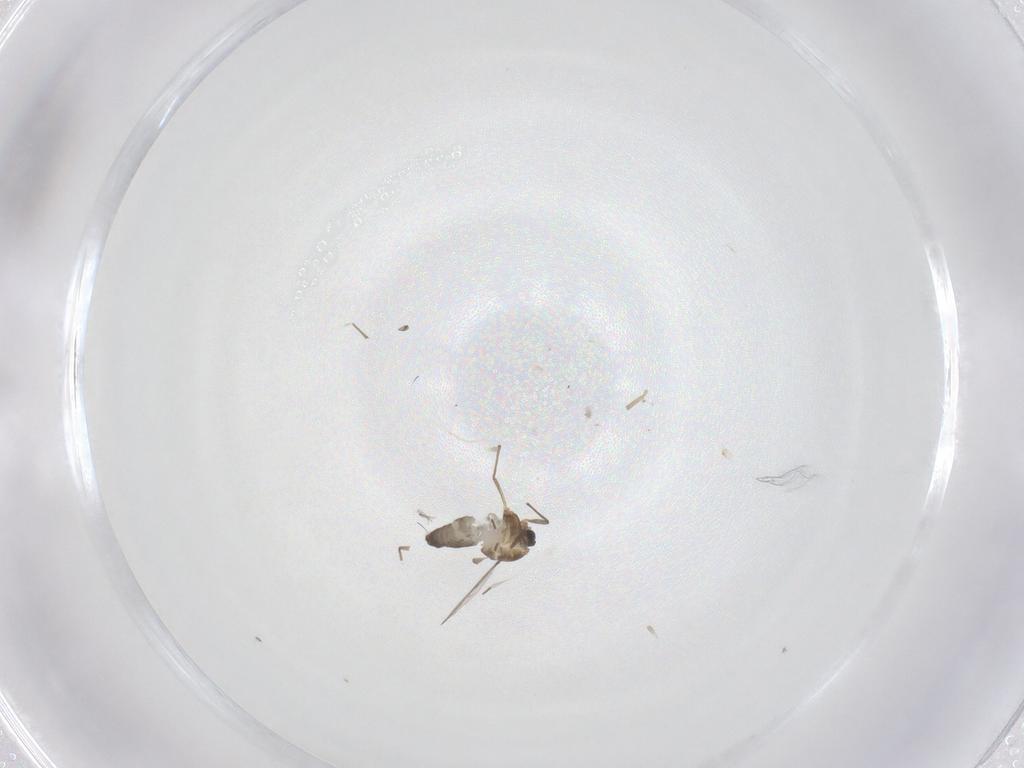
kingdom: Animalia
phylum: Arthropoda
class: Insecta
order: Diptera
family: Chironomidae
